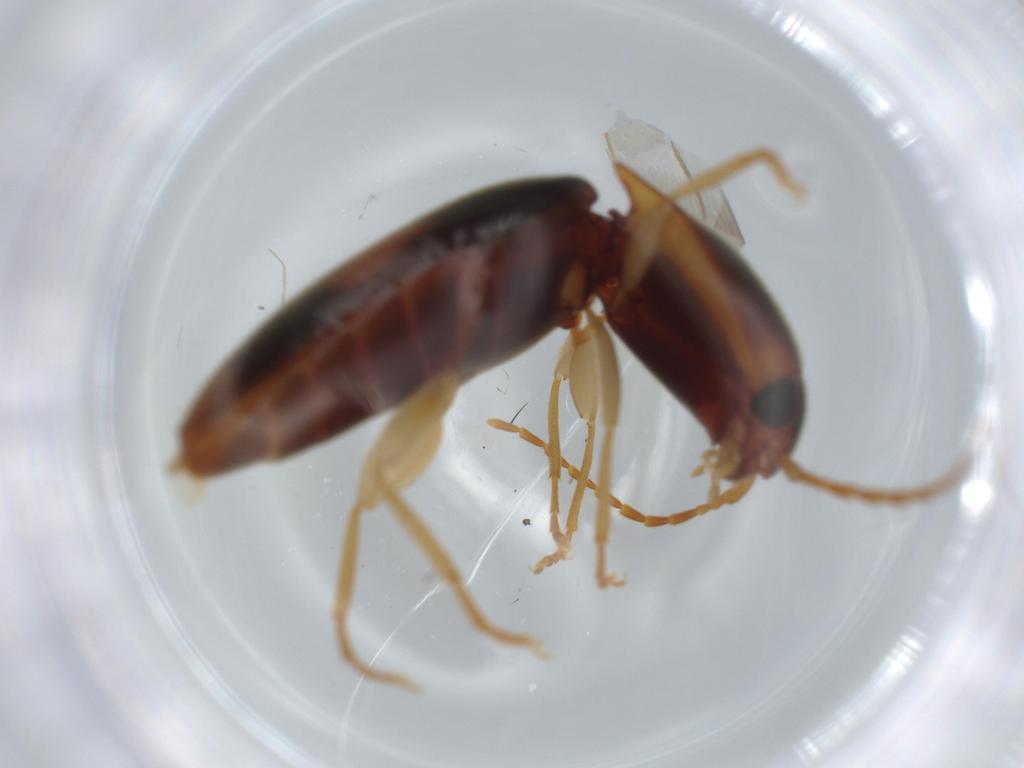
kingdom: Animalia
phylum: Arthropoda
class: Insecta
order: Coleoptera
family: Elateridae
